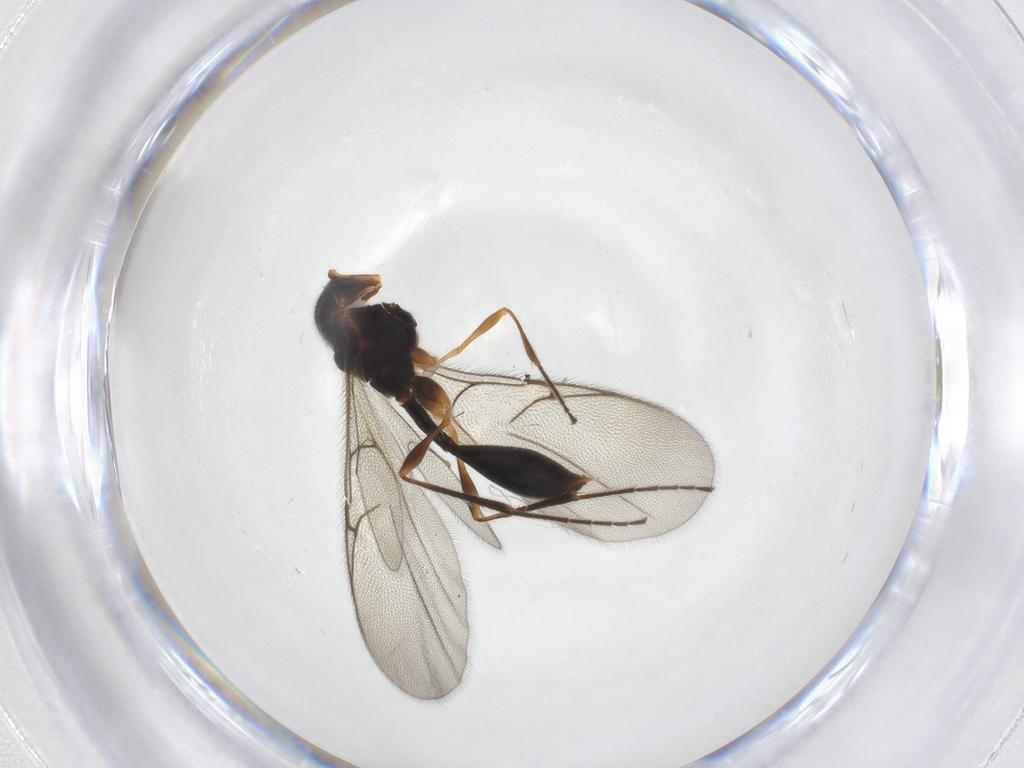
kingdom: Animalia
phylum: Arthropoda
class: Insecta
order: Hymenoptera
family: Diapriidae
